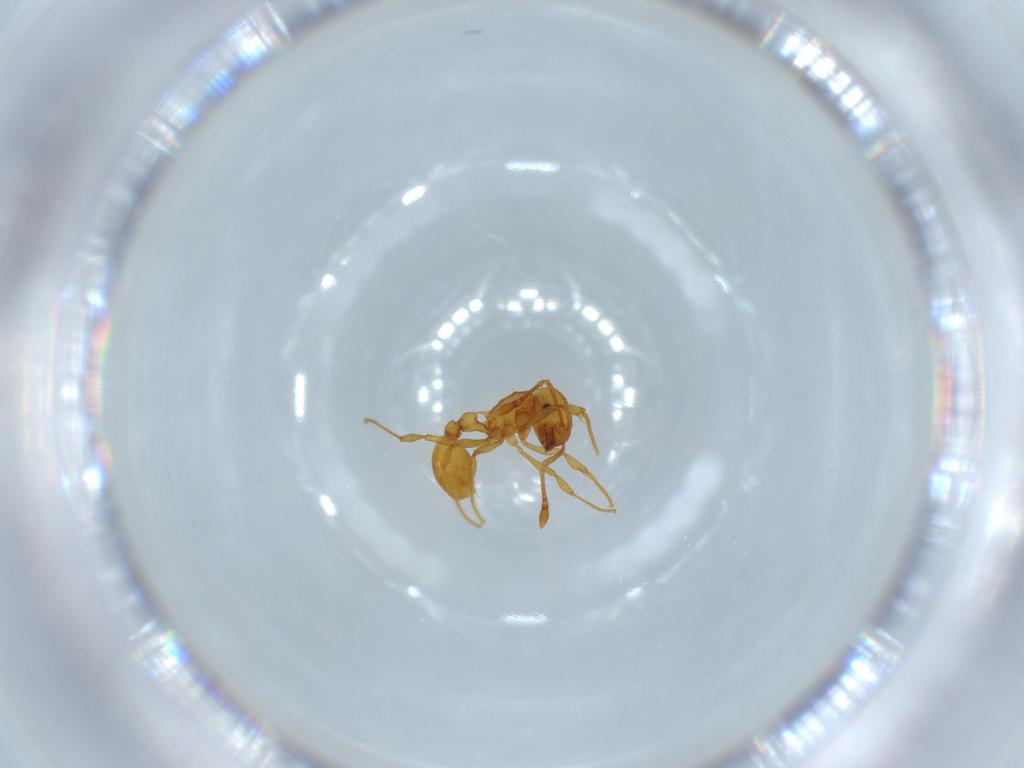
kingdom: Animalia
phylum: Arthropoda
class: Insecta
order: Hymenoptera
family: Formicidae
